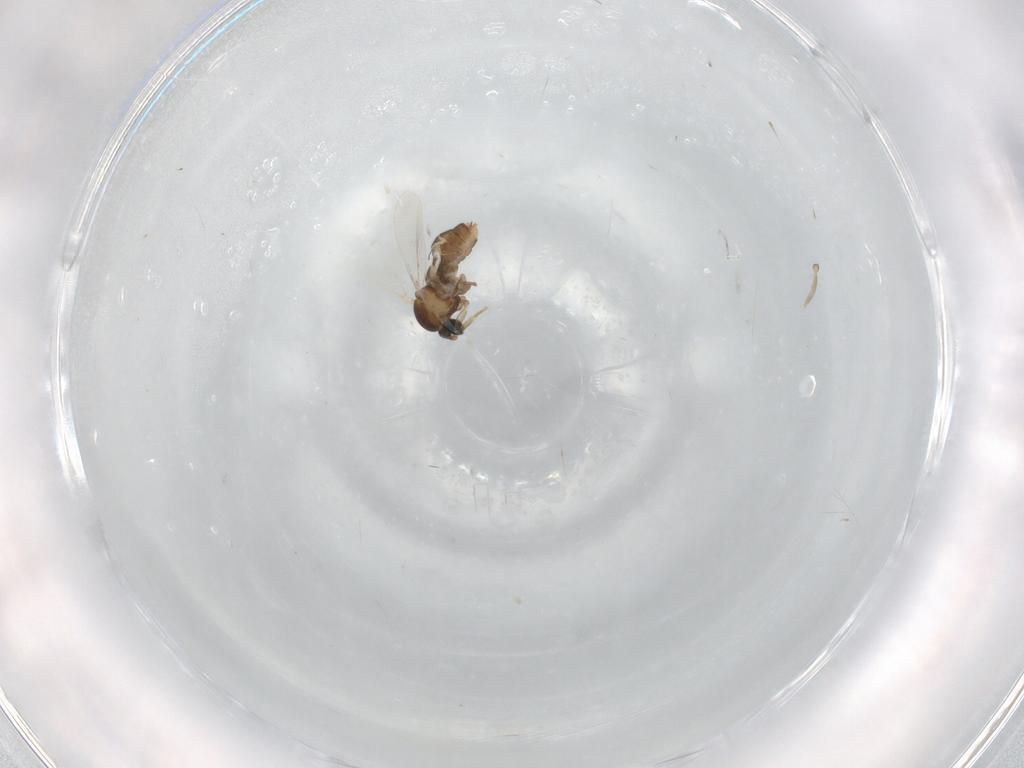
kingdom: Animalia
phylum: Arthropoda
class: Insecta
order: Diptera
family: Cecidomyiidae
